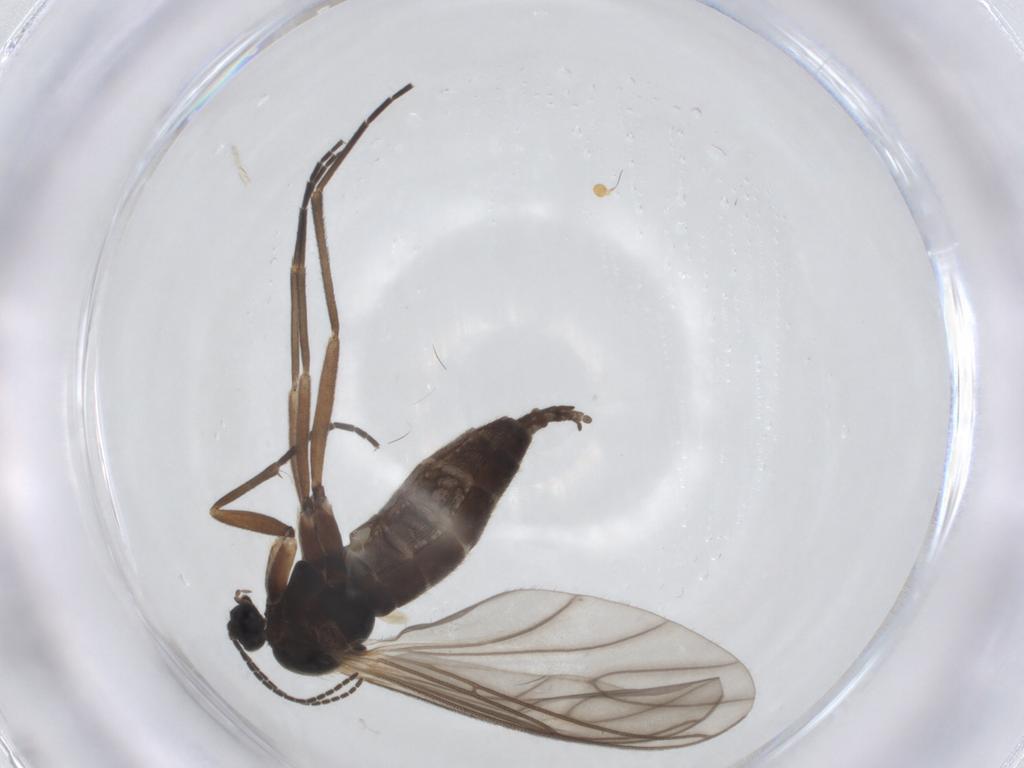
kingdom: Animalia
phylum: Arthropoda
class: Insecta
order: Diptera
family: Sciaridae
